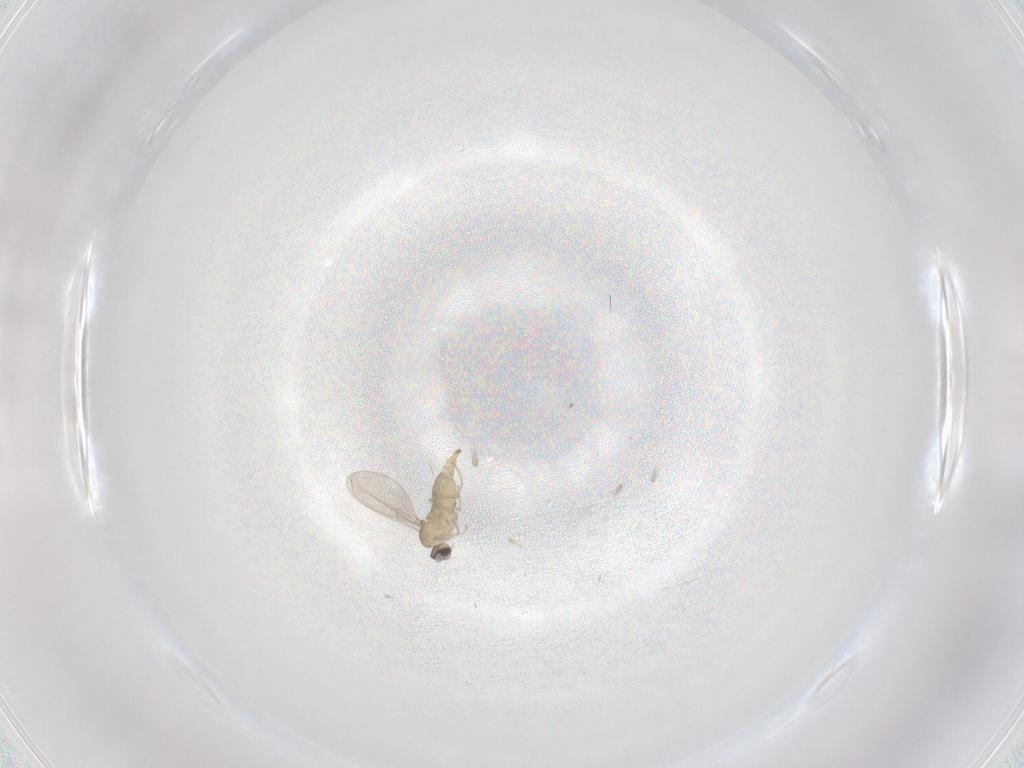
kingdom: Animalia
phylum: Arthropoda
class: Insecta
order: Diptera
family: Cecidomyiidae
